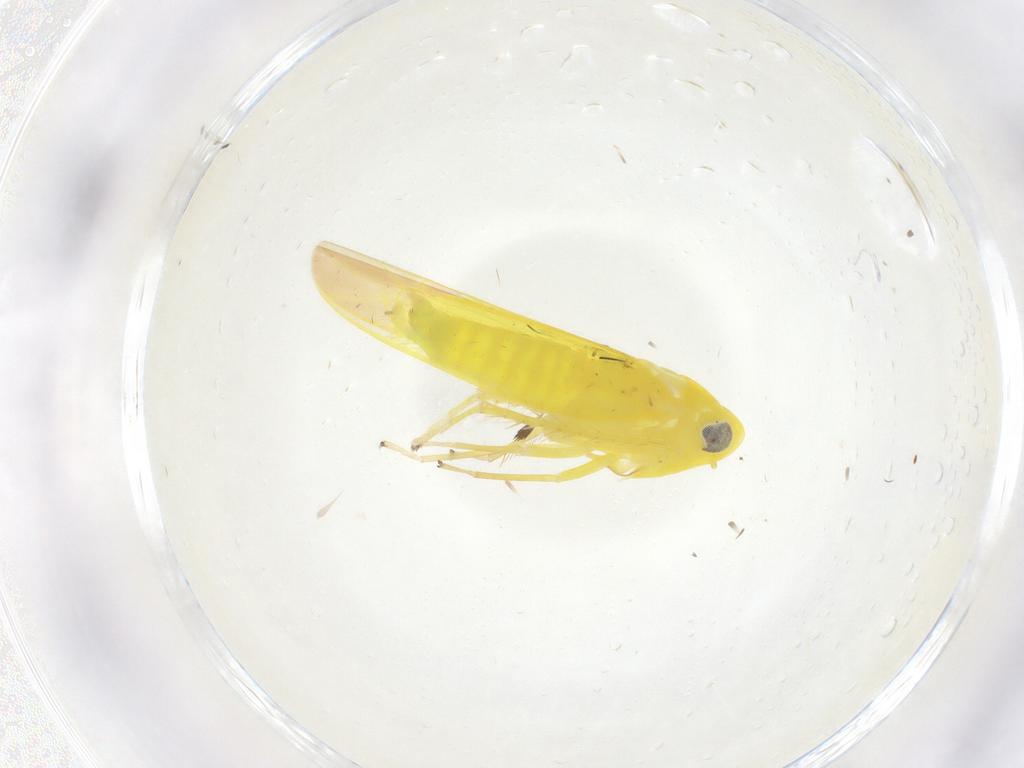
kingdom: Animalia
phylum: Arthropoda
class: Insecta
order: Hemiptera
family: Cicadellidae
